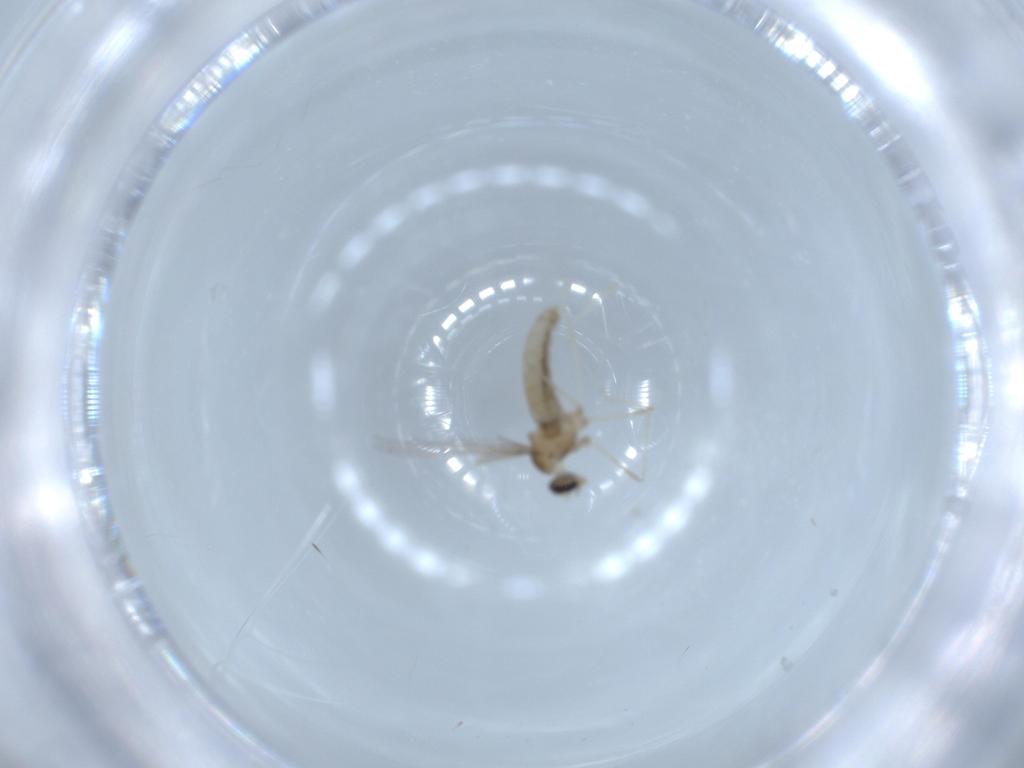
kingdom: Animalia
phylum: Arthropoda
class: Insecta
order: Diptera
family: Cecidomyiidae
